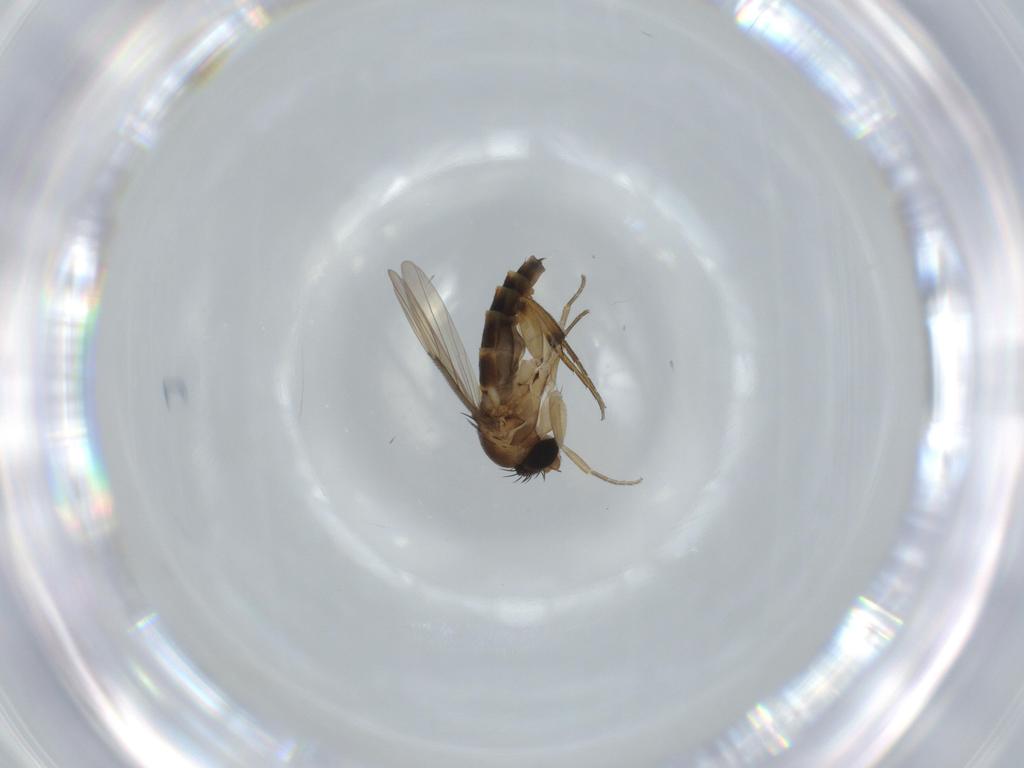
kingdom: Animalia
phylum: Arthropoda
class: Insecta
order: Diptera
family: Phoridae
